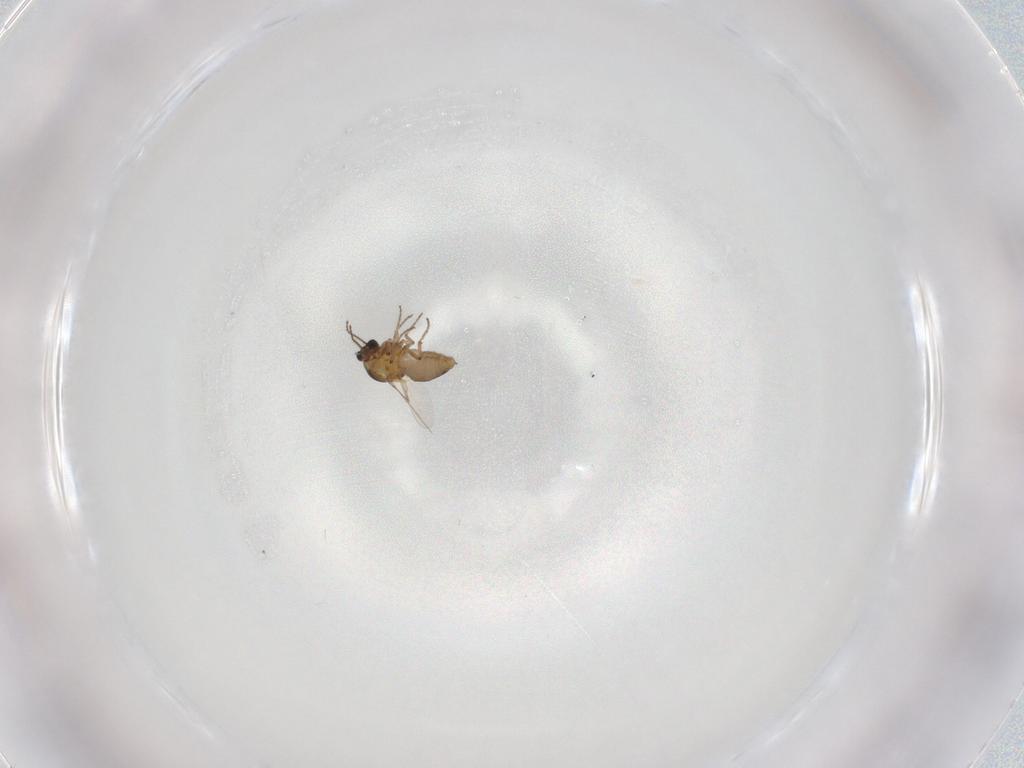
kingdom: Animalia
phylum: Arthropoda
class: Insecta
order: Diptera
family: Ceratopogonidae
